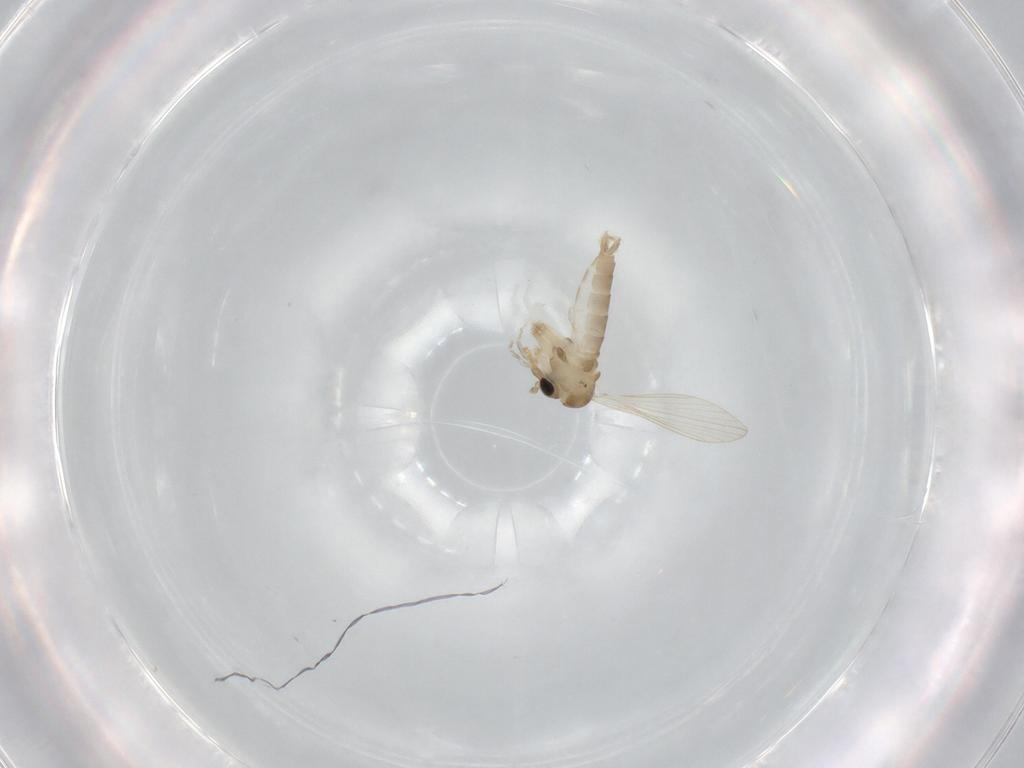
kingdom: Animalia
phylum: Arthropoda
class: Insecta
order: Diptera
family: Psychodidae
